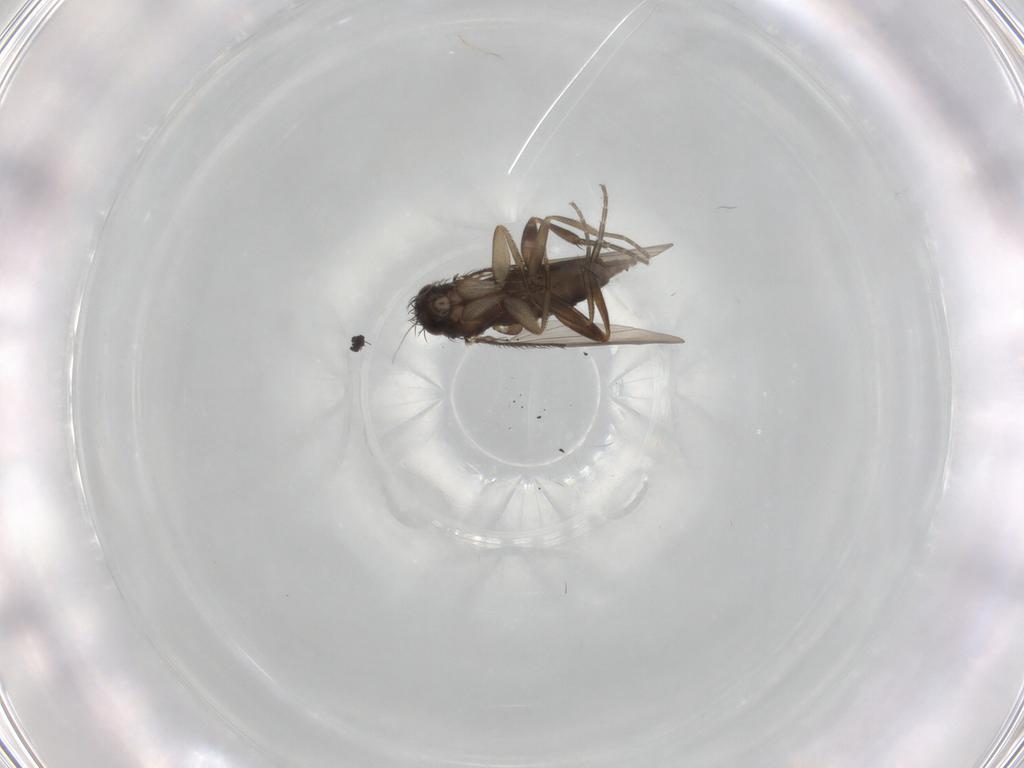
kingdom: Animalia
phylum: Arthropoda
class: Insecta
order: Diptera
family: Phoridae
